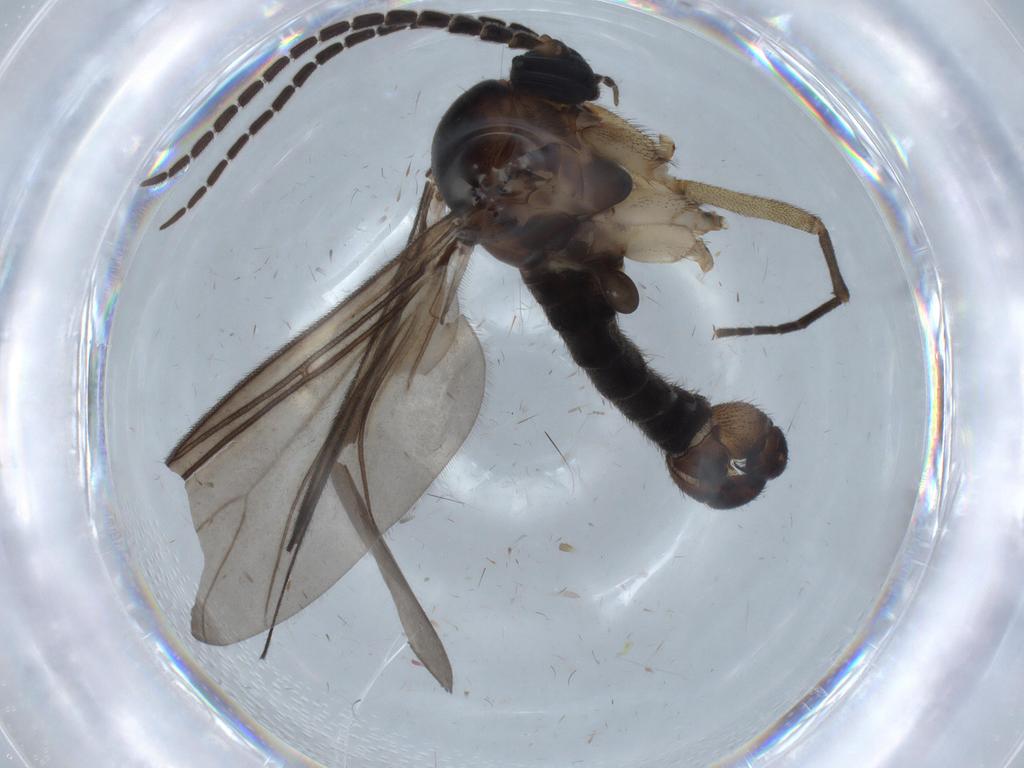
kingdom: Animalia
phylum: Arthropoda
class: Insecta
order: Diptera
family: Sciaridae
